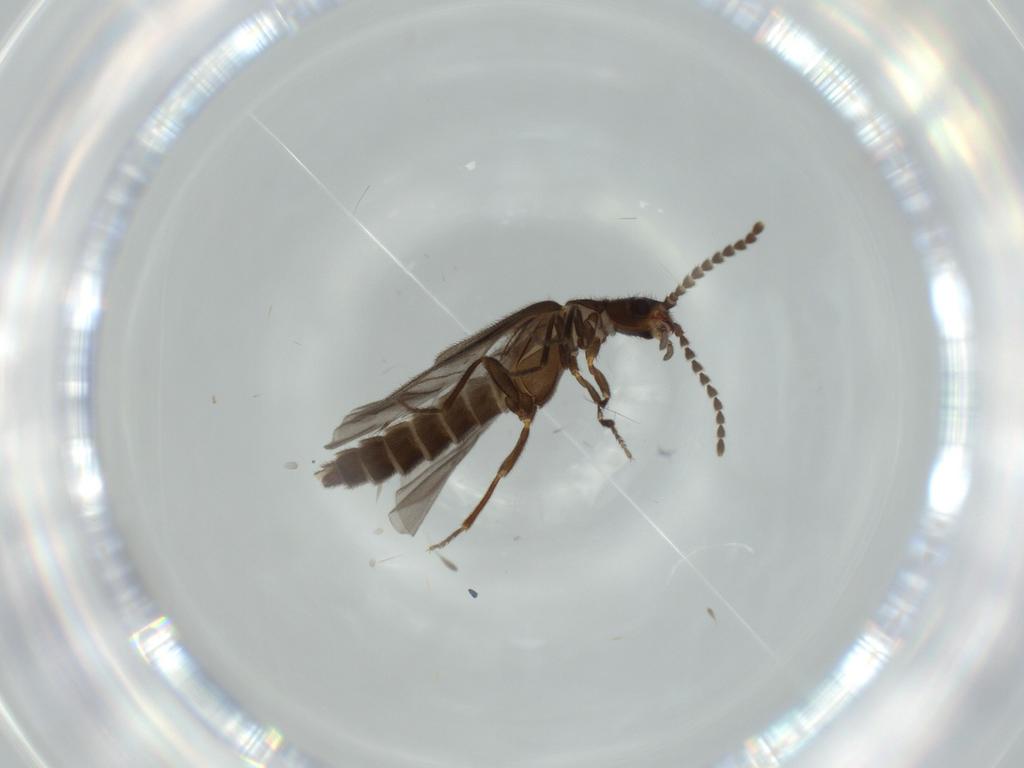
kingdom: Animalia
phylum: Arthropoda
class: Insecta
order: Coleoptera
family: Omethidae
